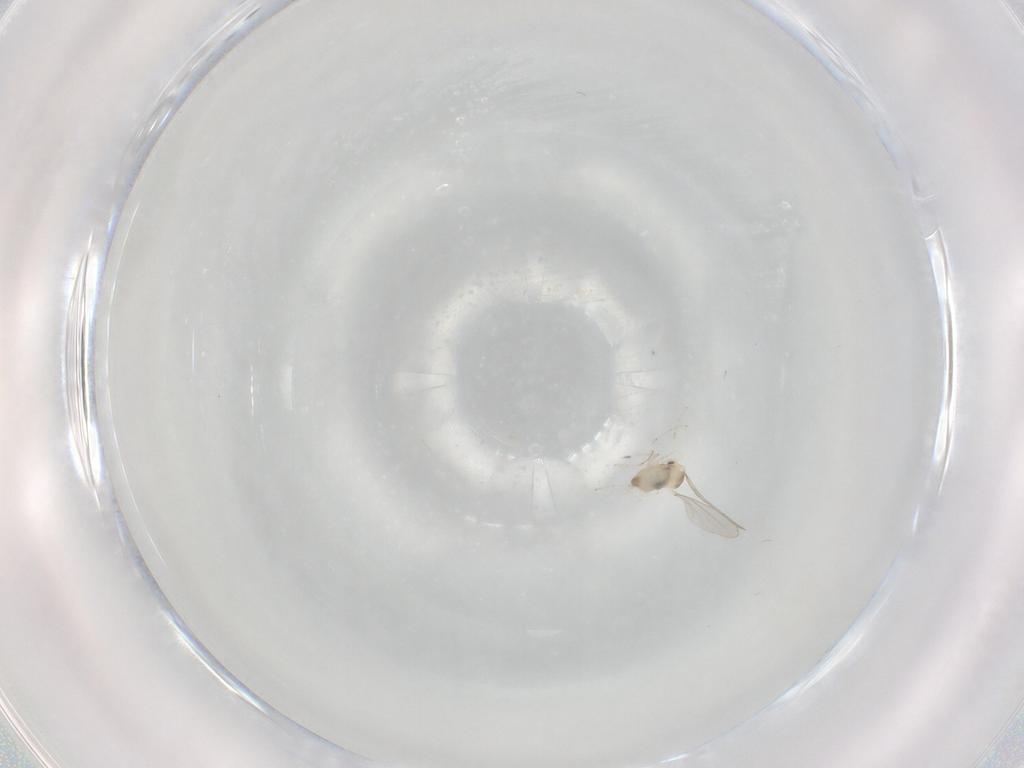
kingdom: Animalia
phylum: Arthropoda
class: Insecta
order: Diptera
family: Cecidomyiidae
